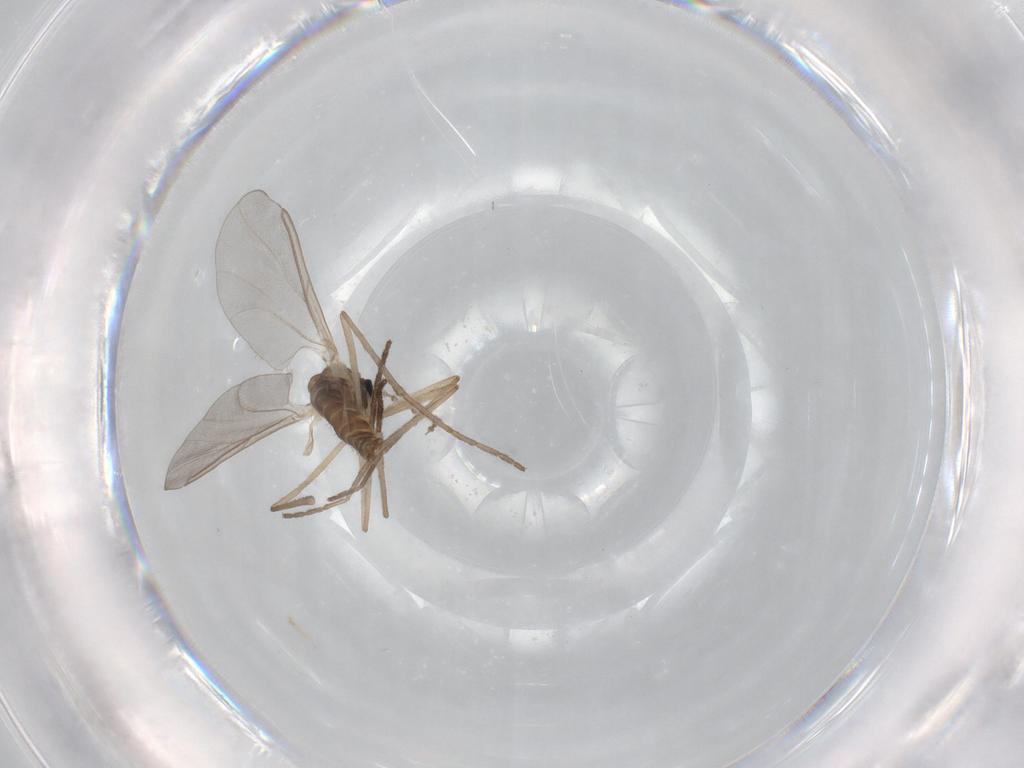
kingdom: Animalia
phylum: Arthropoda
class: Insecta
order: Diptera
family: Cecidomyiidae
